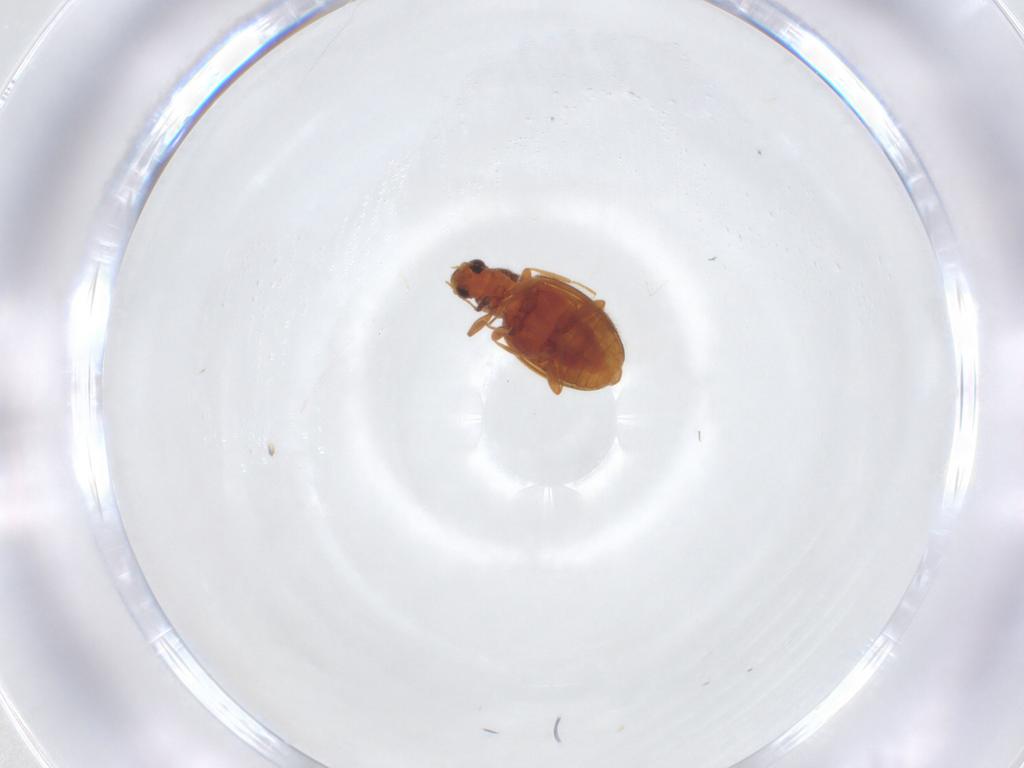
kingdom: Animalia
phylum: Arthropoda
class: Insecta
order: Coleoptera
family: Latridiidae
